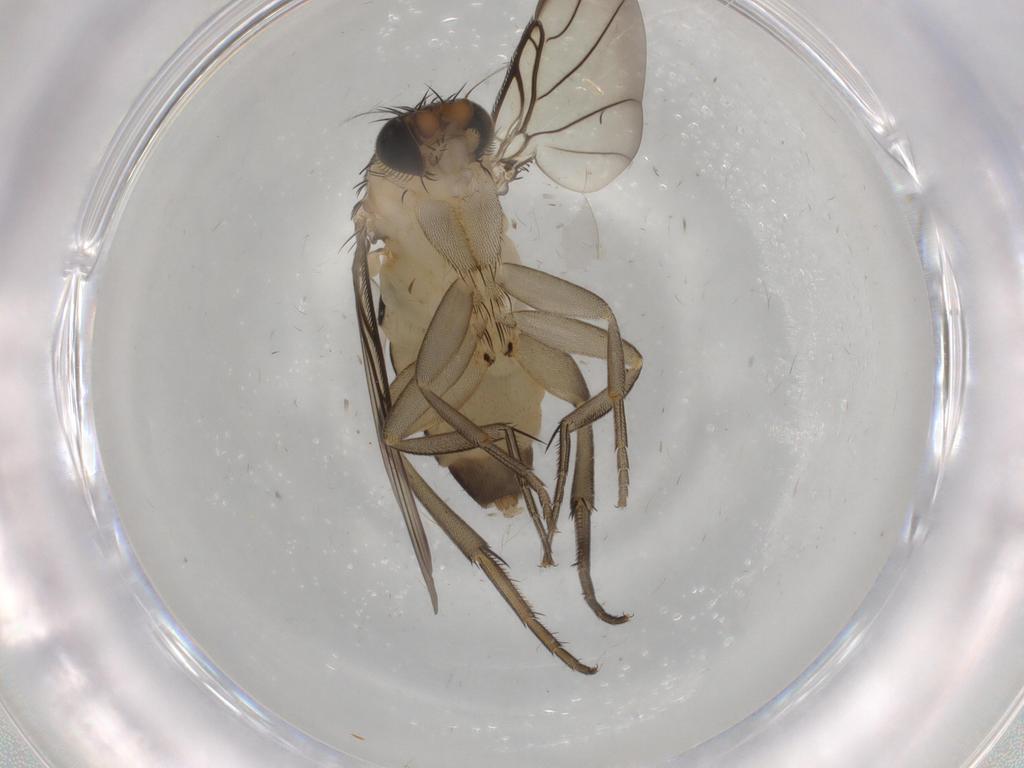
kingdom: Animalia
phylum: Arthropoda
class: Insecta
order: Diptera
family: Phoridae
